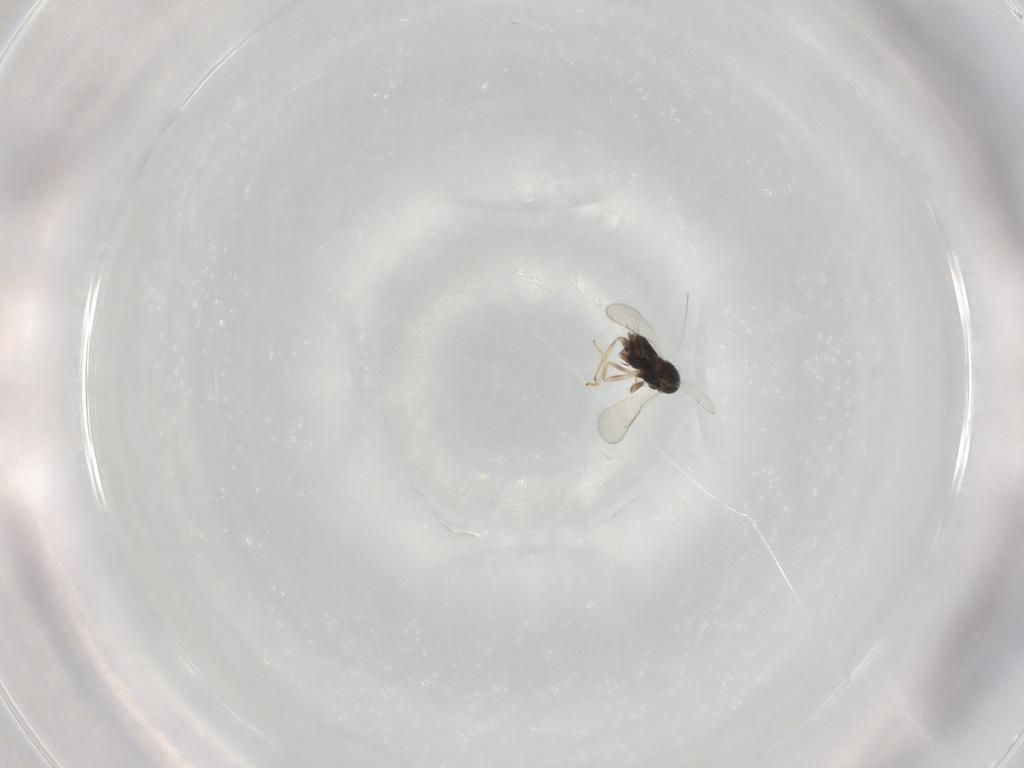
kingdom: Animalia
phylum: Arthropoda
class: Insecta
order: Hymenoptera
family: Aphelinidae
